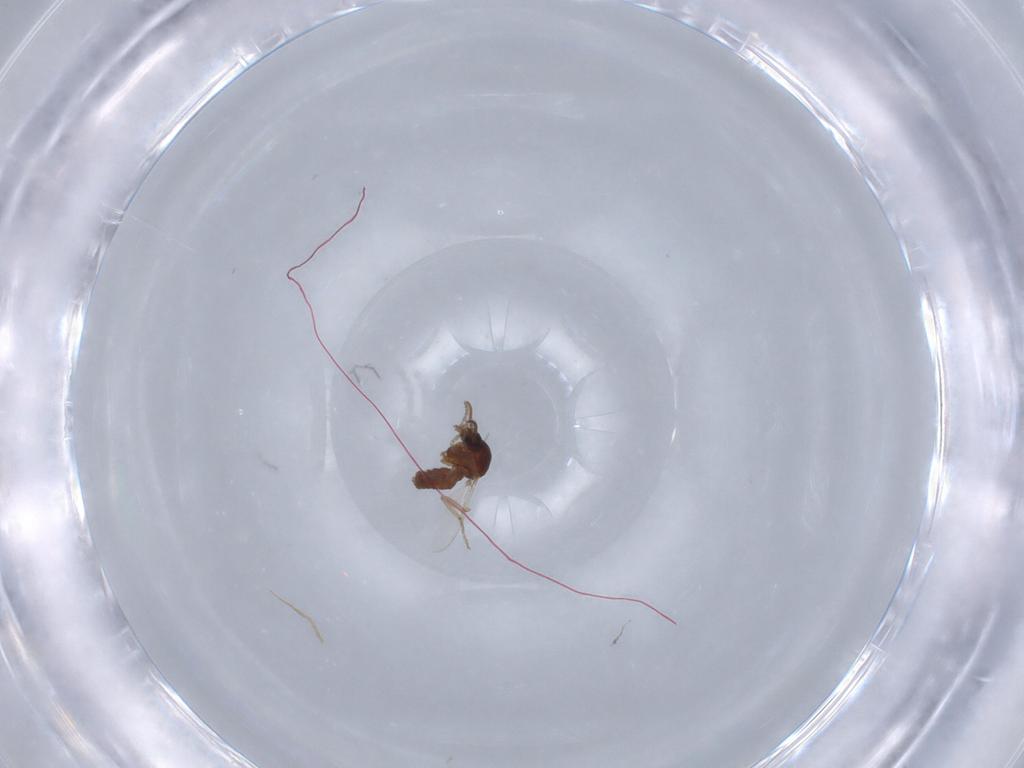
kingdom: Animalia
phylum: Arthropoda
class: Insecta
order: Diptera
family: Ceratopogonidae
